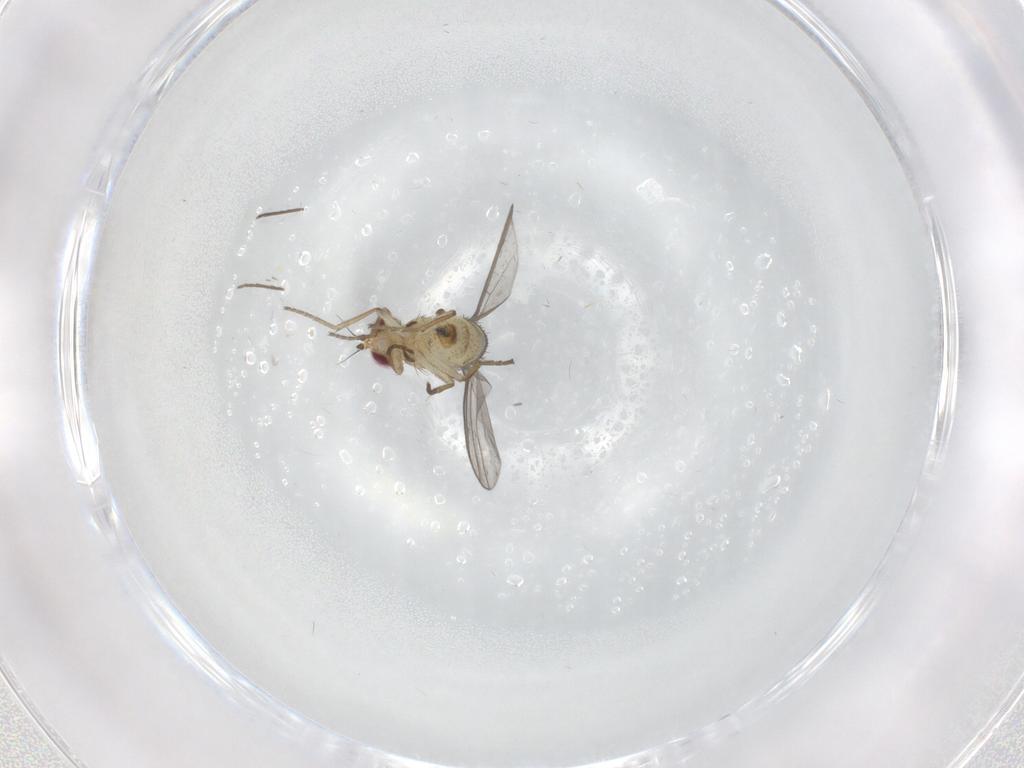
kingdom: Animalia
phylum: Arthropoda
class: Insecta
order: Diptera
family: Agromyzidae
